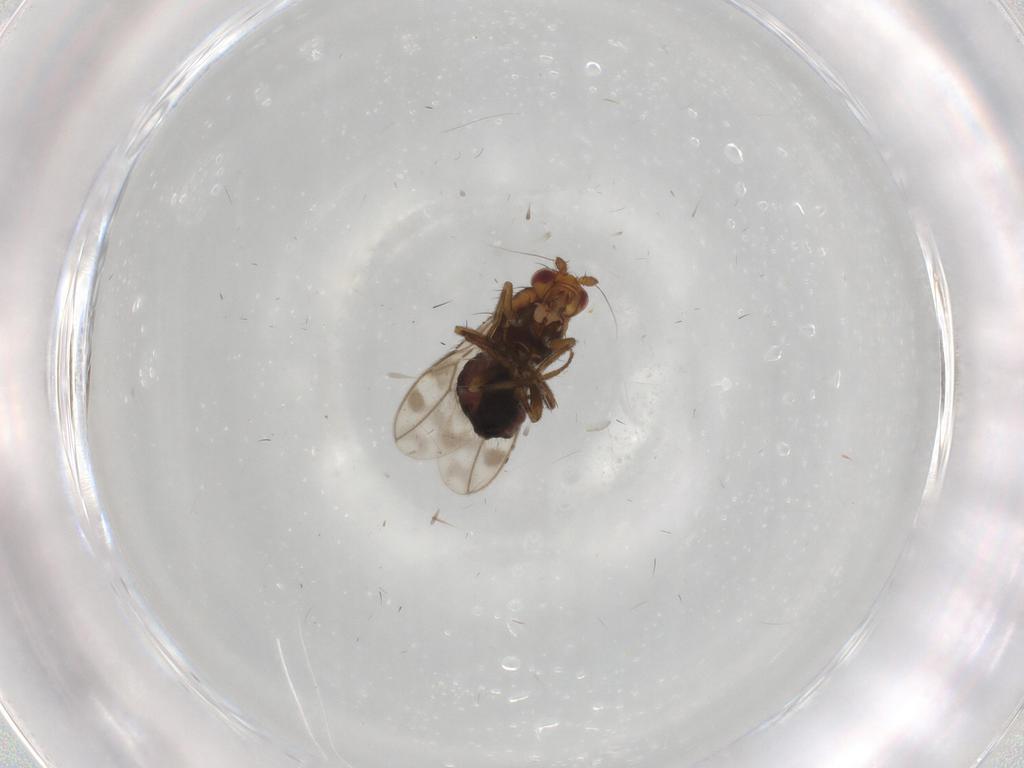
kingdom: Animalia
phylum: Arthropoda
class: Insecta
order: Diptera
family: Sphaeroceridae
